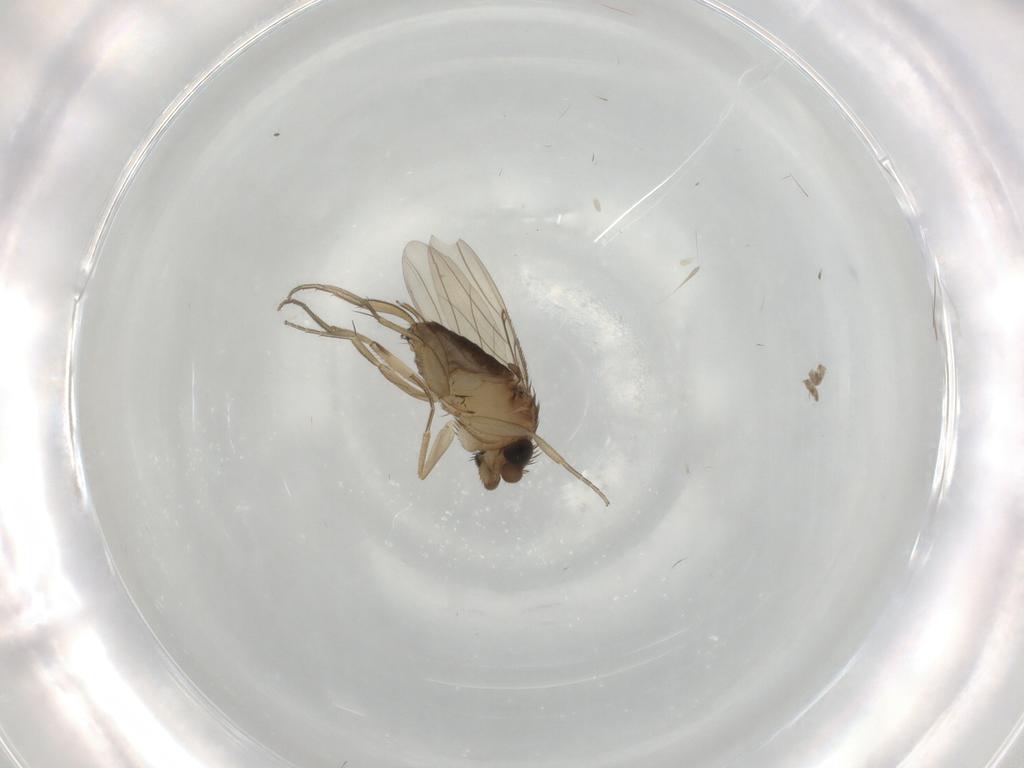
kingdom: Animalia
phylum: Arthropoda
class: Insecta
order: Diptera
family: Phoridae
